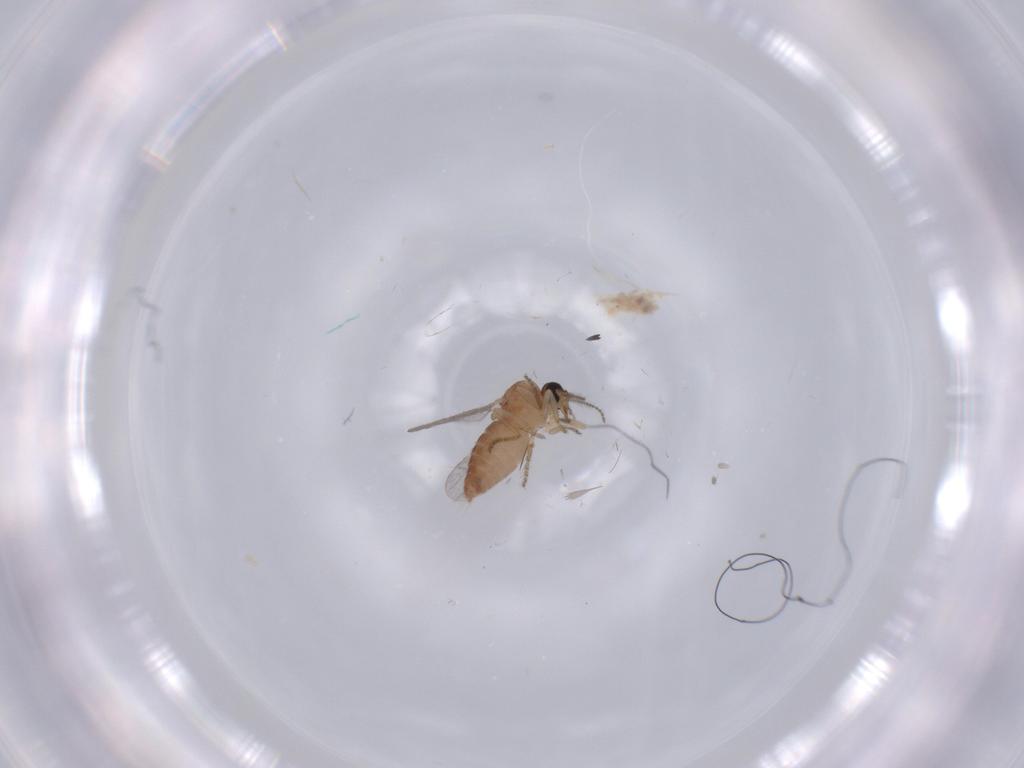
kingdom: Animalia
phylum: Arthropoda
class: Insecta
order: Diptera
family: Ceratopogonidae
